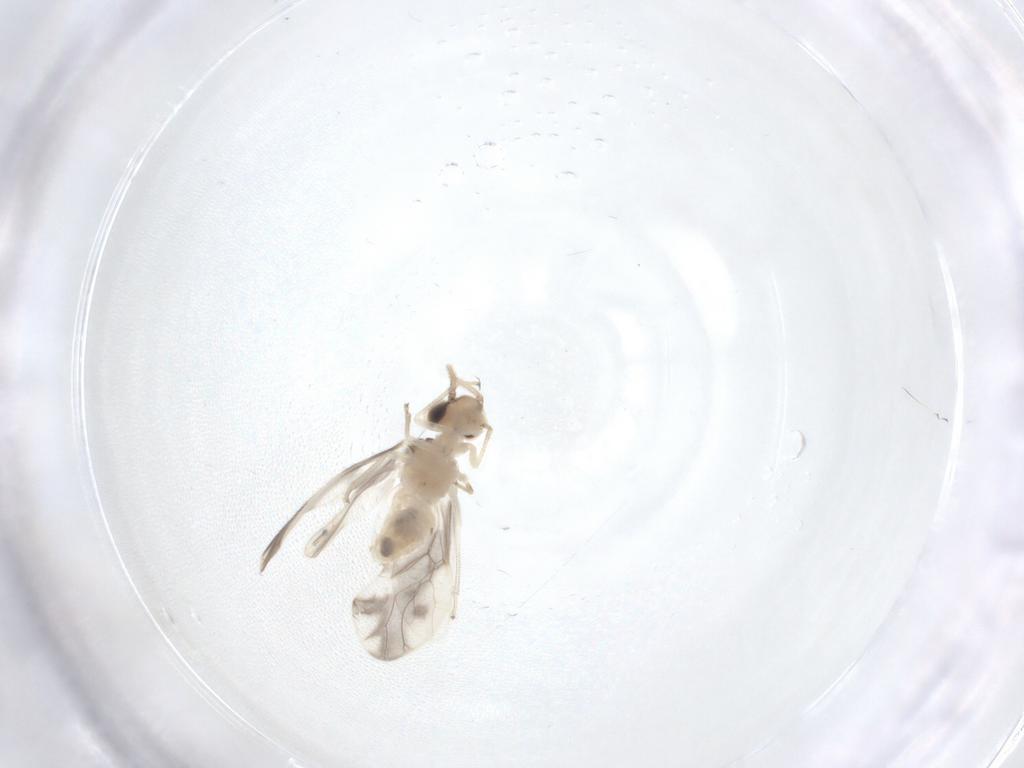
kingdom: Animalia
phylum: Arthropoda
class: Insecta
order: Psocodea
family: Caeciliusidae
